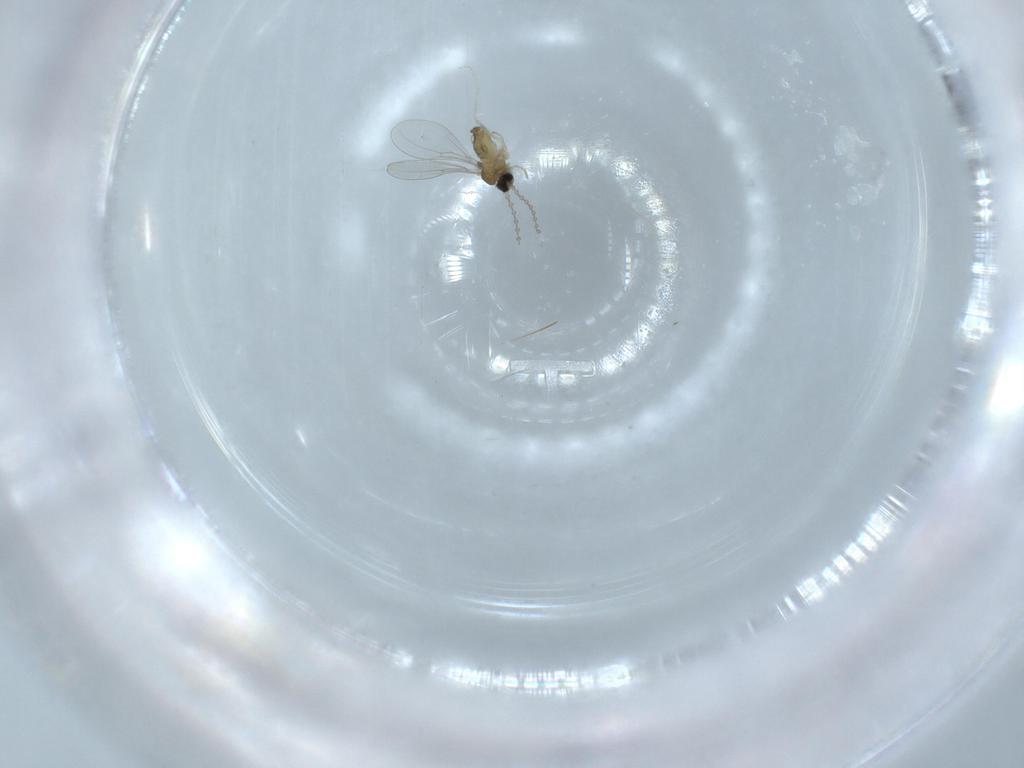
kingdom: Animalia
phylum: Arthropoda
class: Insecta
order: Diptera
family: Cecidomyiidae
